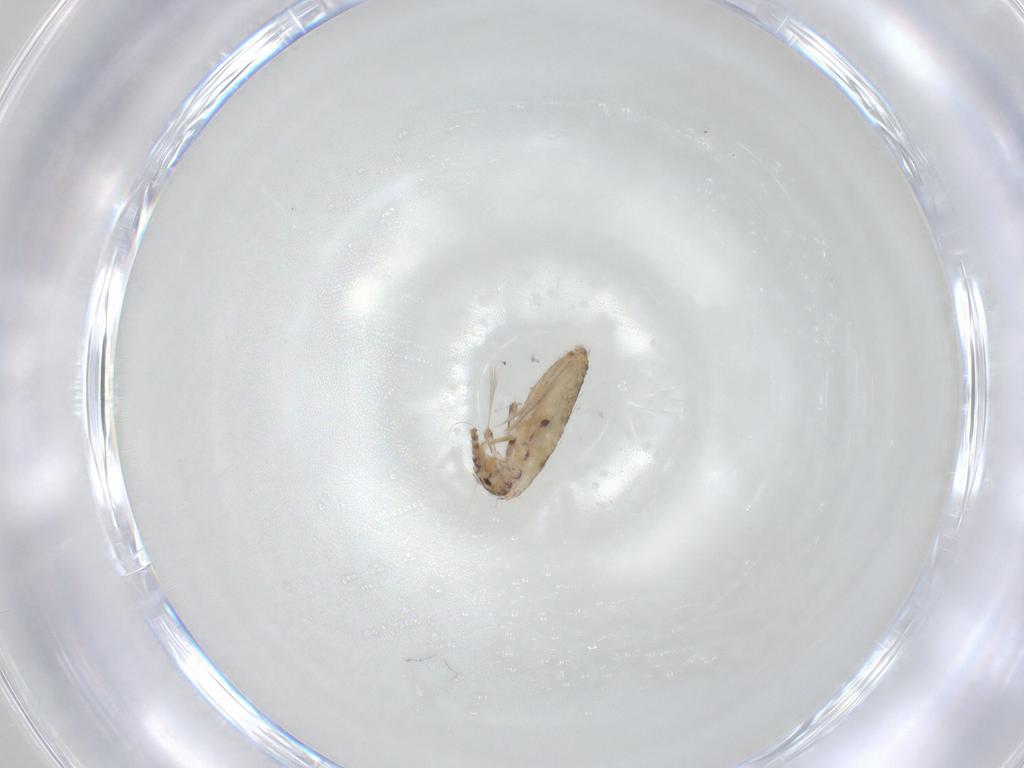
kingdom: Animalia
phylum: Arthropoda
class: Collembola
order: Entomobryomorpha
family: Entomobryidae
